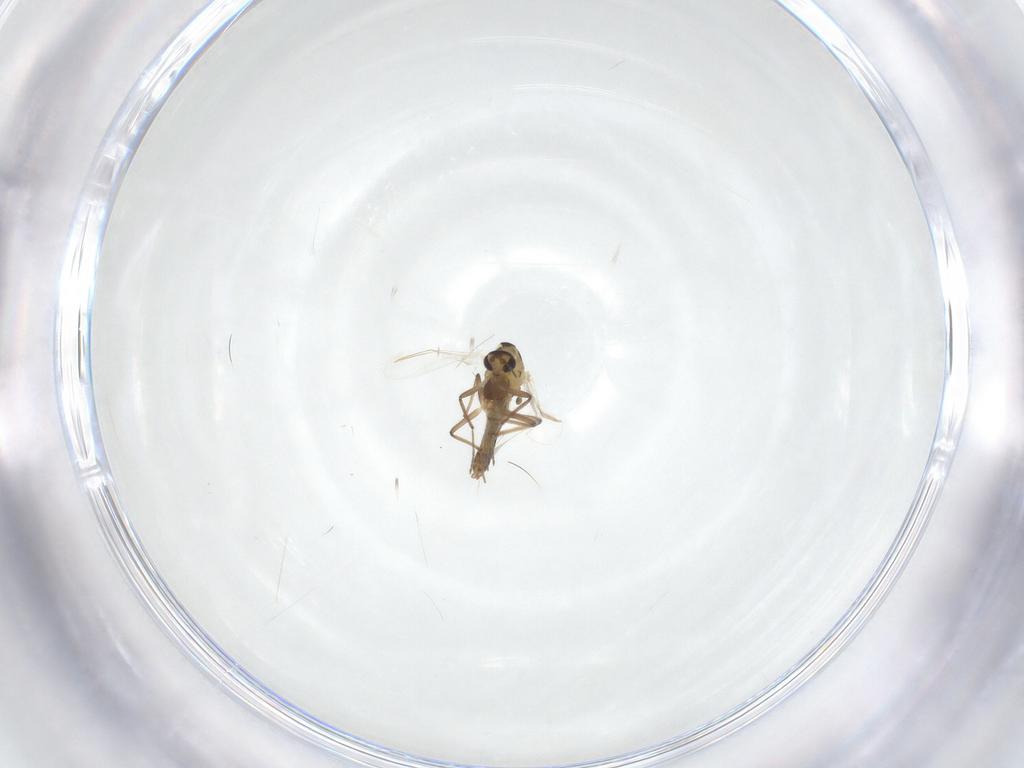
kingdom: Animalia
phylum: Arthropoda
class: Insecta
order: Diptera
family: Chironomidae
